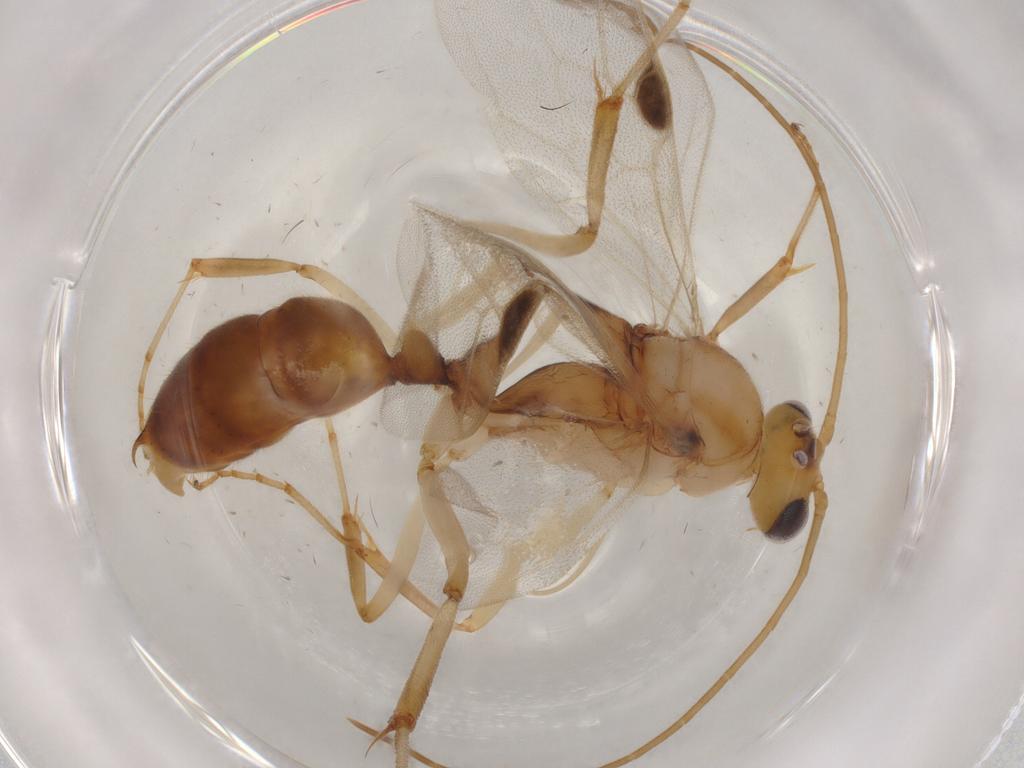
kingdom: Animalia
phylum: Arthropoda
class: Insecta
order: Hymenoptera
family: Formicidae
